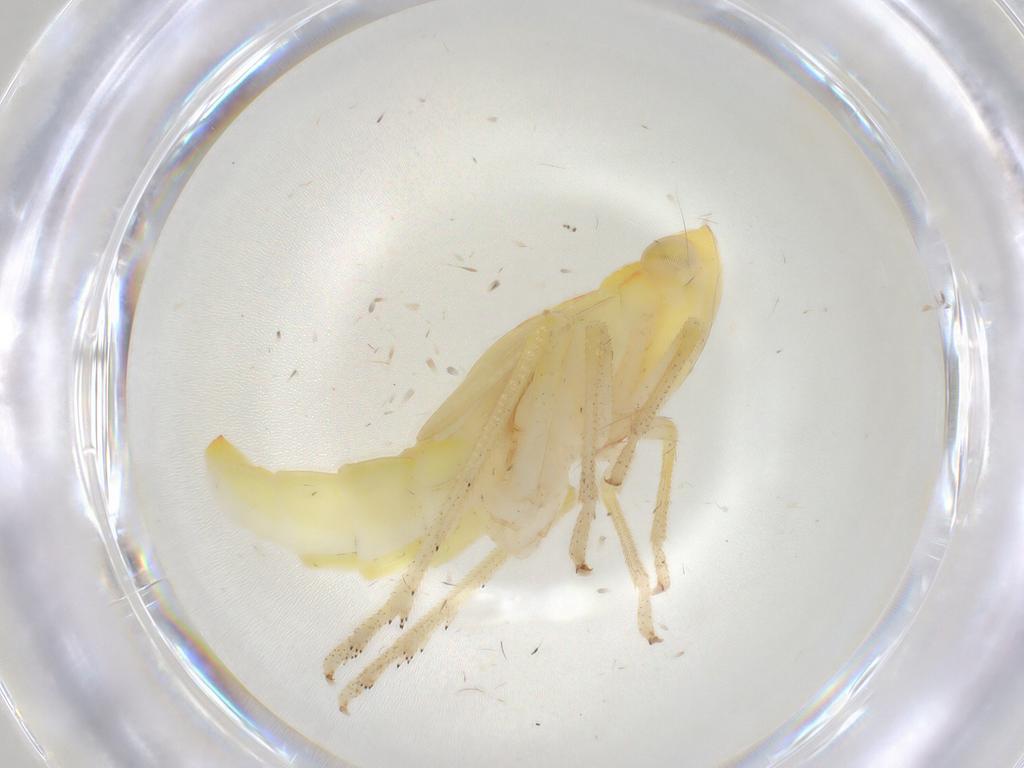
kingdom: Animalia
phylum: Arthropoda
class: Insecta
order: Hemiptera
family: Tropiduchidae
